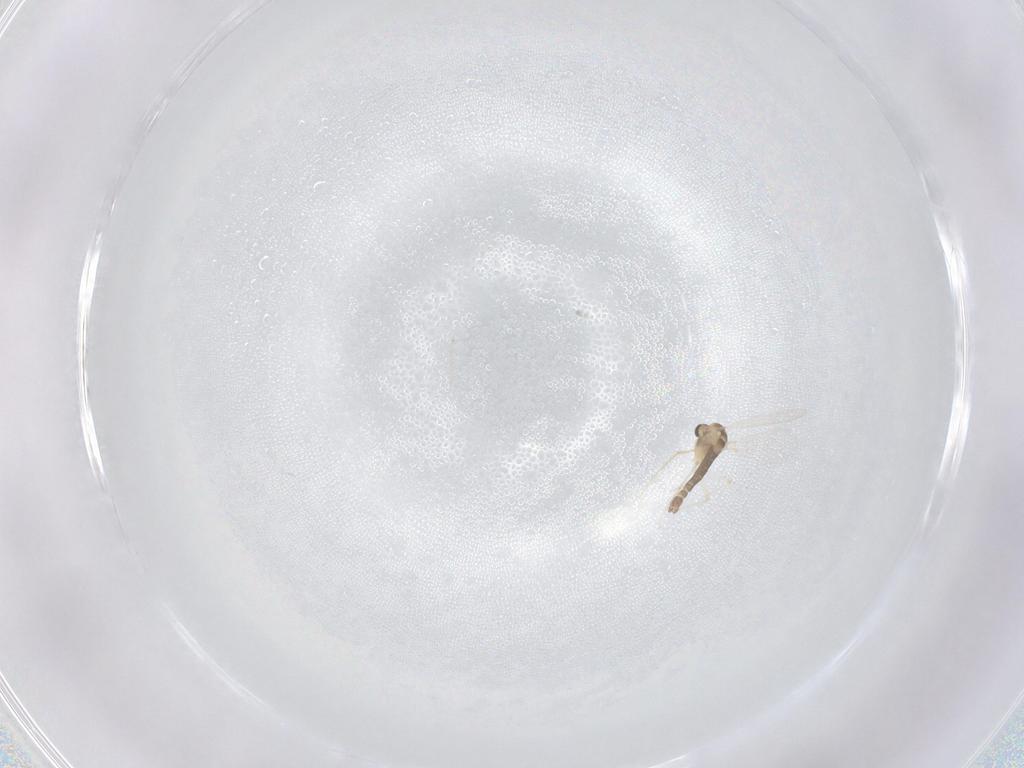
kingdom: Animalia
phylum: Arthropoda
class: Insecta
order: Diptera
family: Chironomidae
